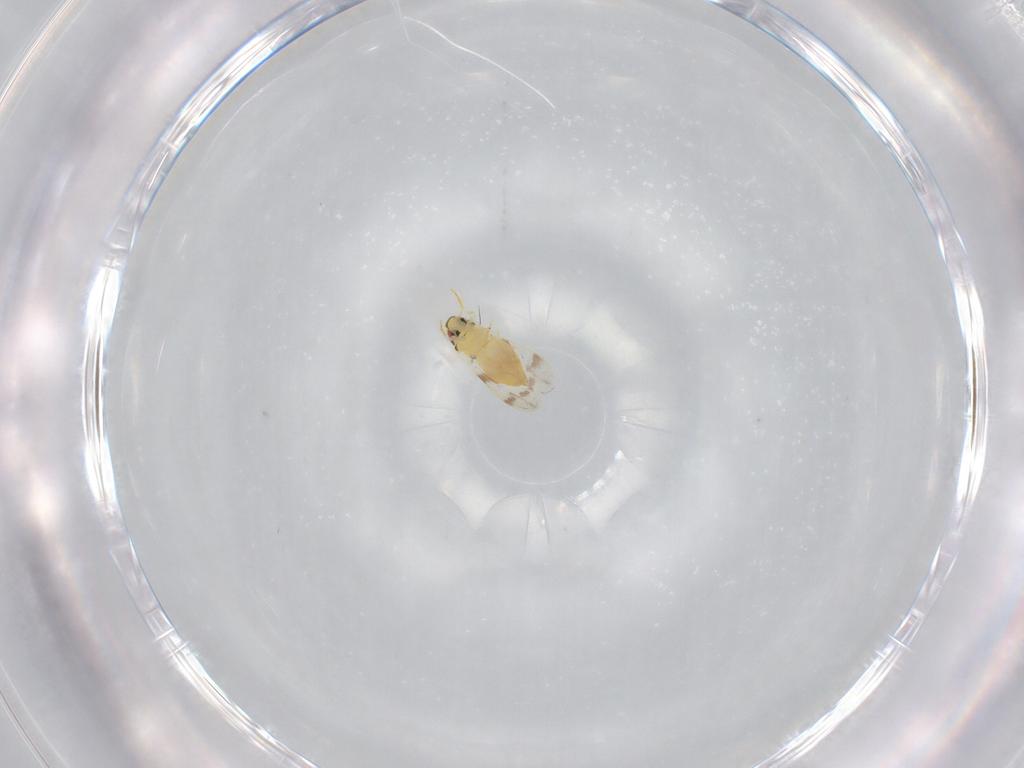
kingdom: Animalia
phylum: Arthropoda
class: Insecta
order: Hemiptera
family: Aleyrodidae
